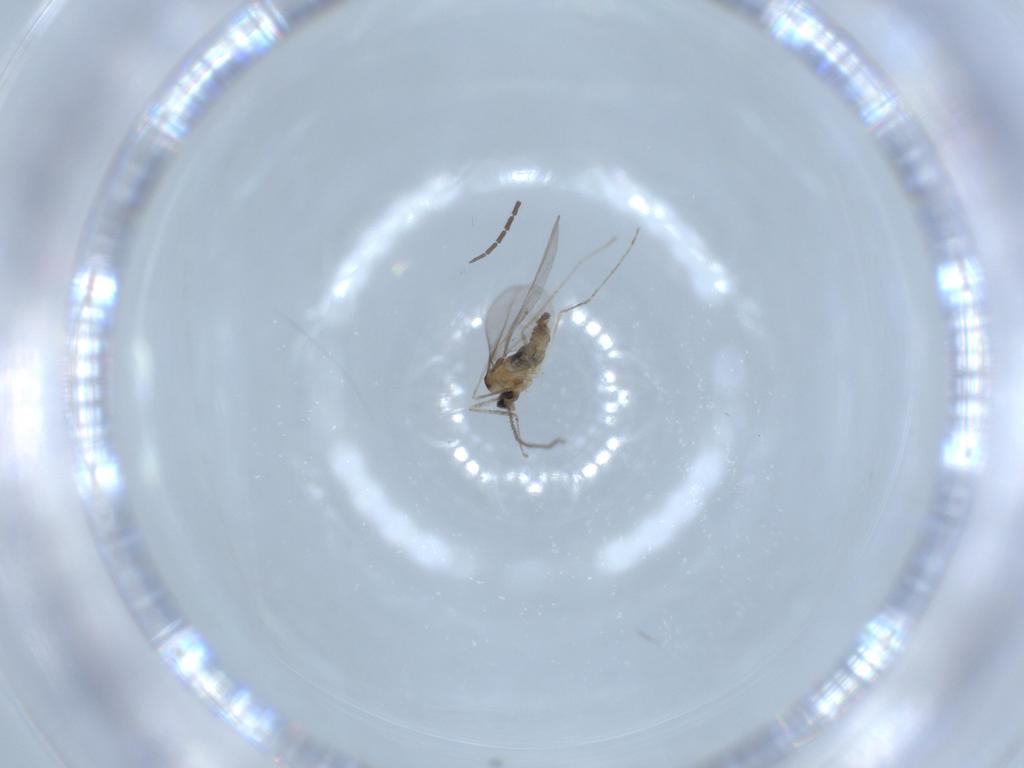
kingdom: Animalia
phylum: Arthropoda
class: Insecta
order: Diptera
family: Cecidomyiidae
